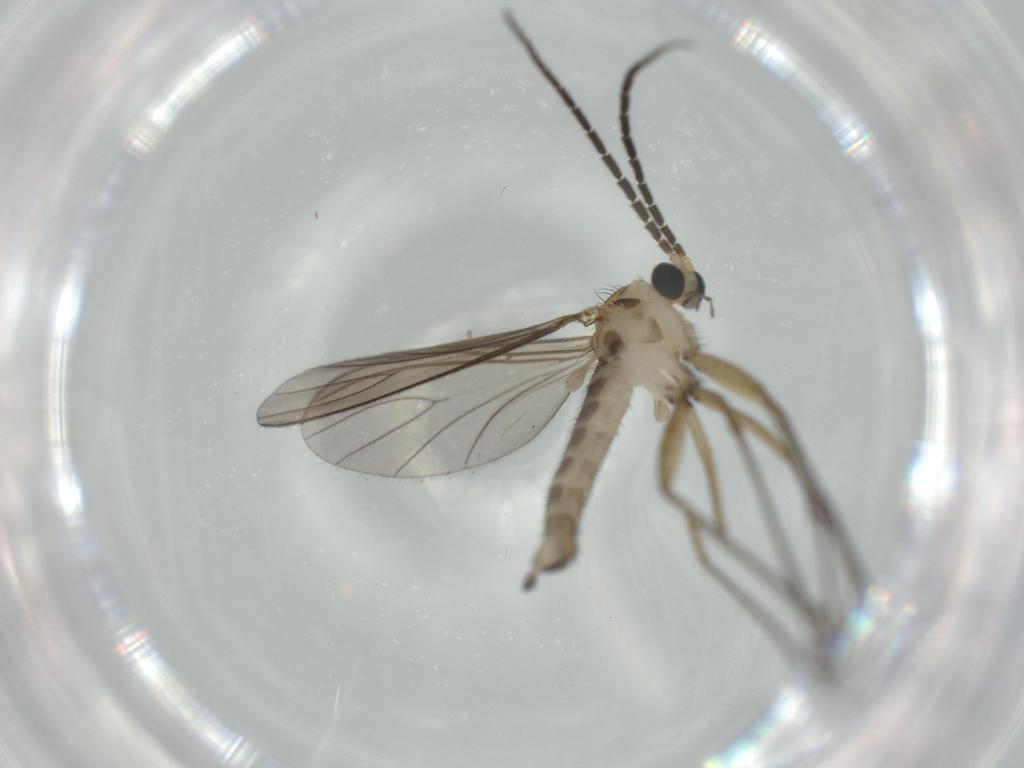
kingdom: Animalia
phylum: Arthropoda
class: Insecta
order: Diptera
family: Sciaridae
